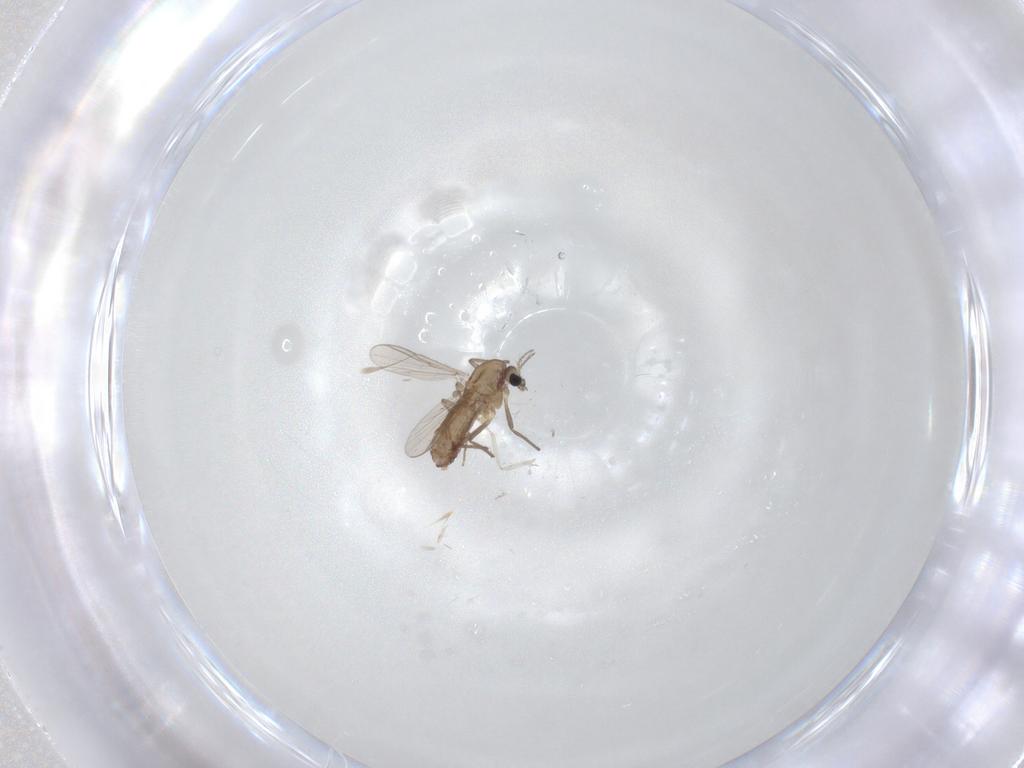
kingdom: Animalia
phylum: Arthropoda
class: Insecta
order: Diptera
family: Chironomidae
